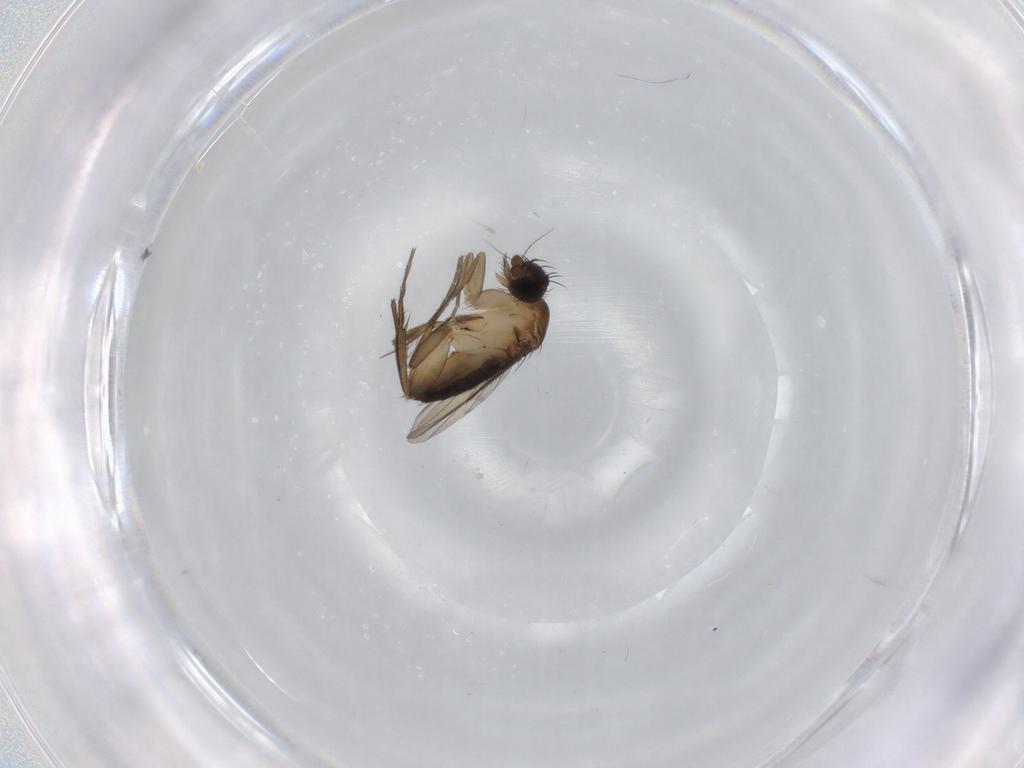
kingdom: Animalia
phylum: Arthropoda
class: Insecta
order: Diptera
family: Phoridae
